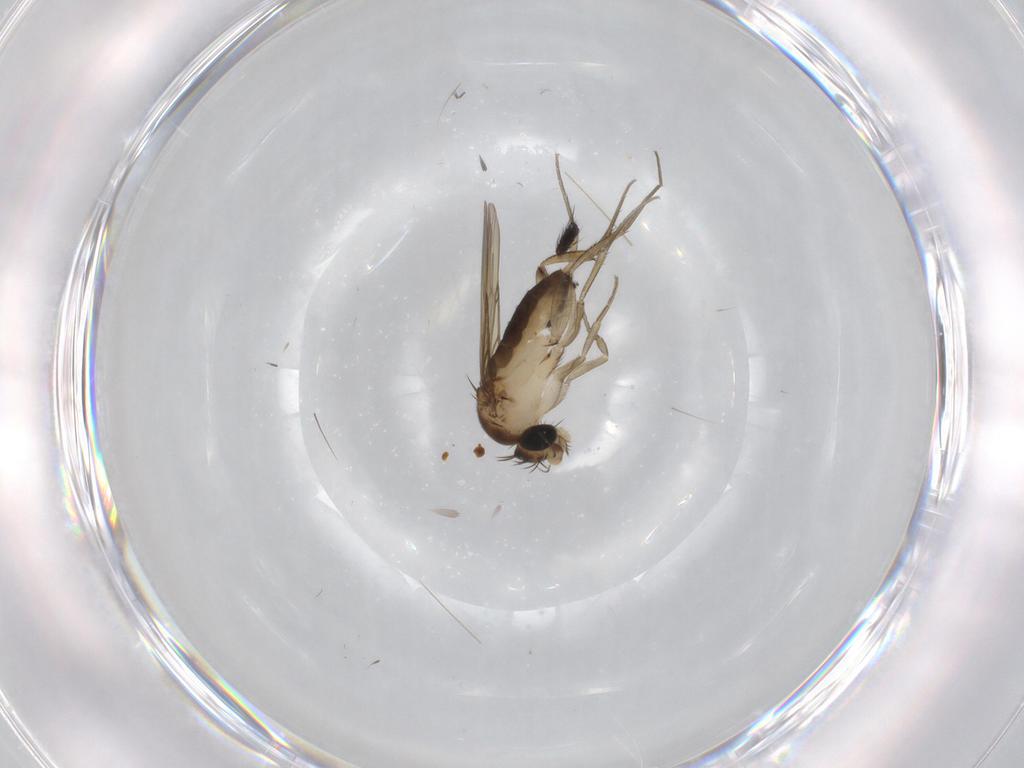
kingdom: Animalia
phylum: Arthropoda
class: Insecta
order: Diptera
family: Limoniidae
